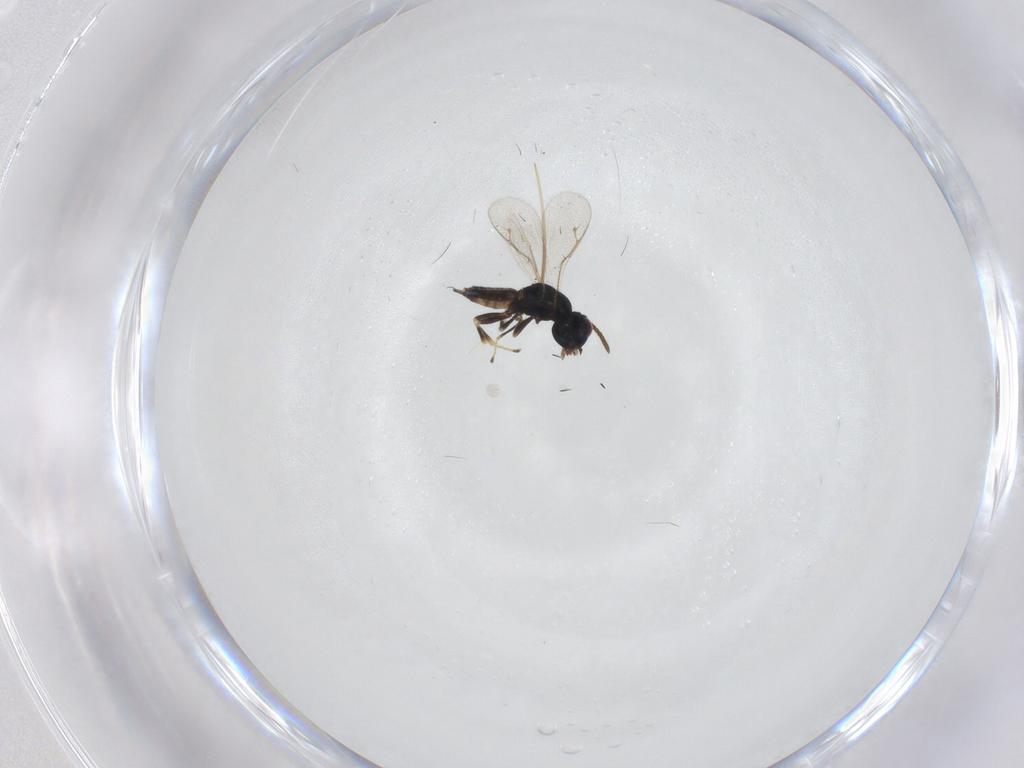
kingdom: Animalia
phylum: Arthropoda
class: Insecta
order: Hymenoptera
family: Pteromalidae
